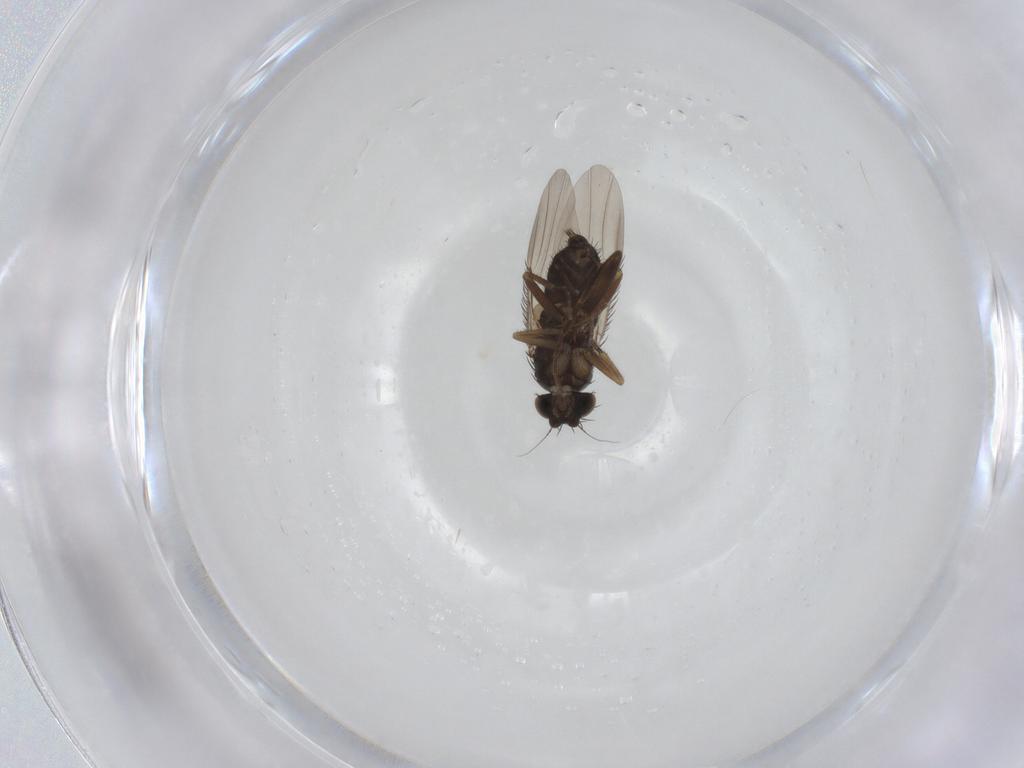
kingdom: Animalia
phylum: Arthropoda
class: Insecta
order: Diptera
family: Phoridae
